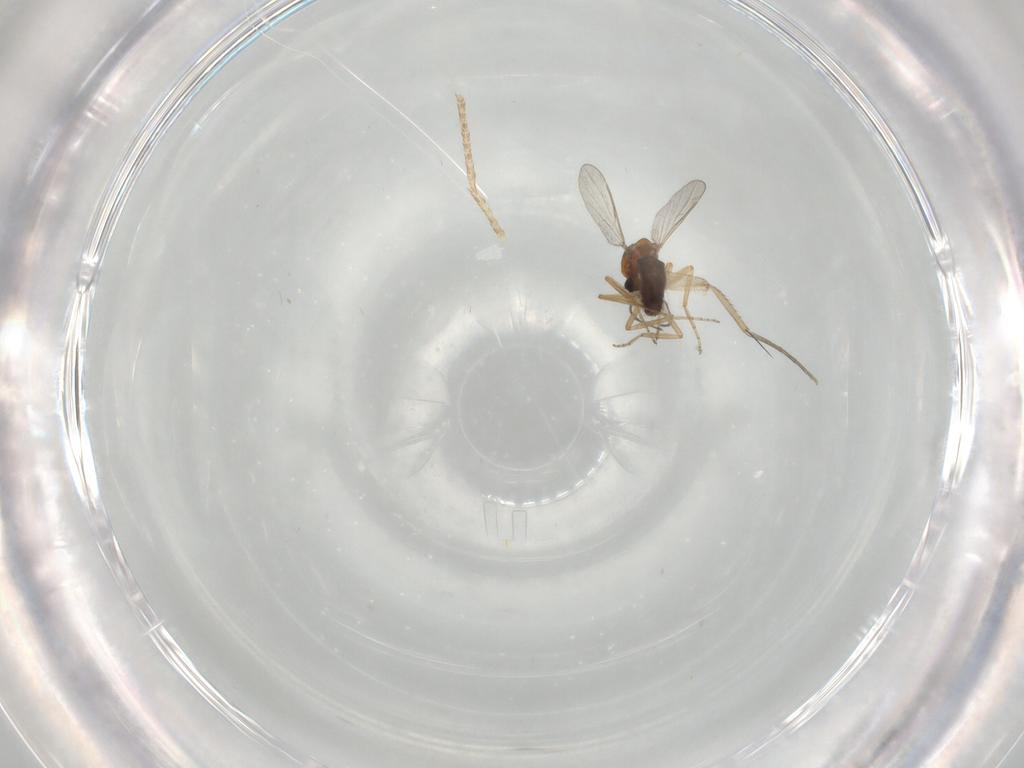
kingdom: Animalia
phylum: Arthropoda
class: Insecta
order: Diptera
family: Ceratopogonidae
